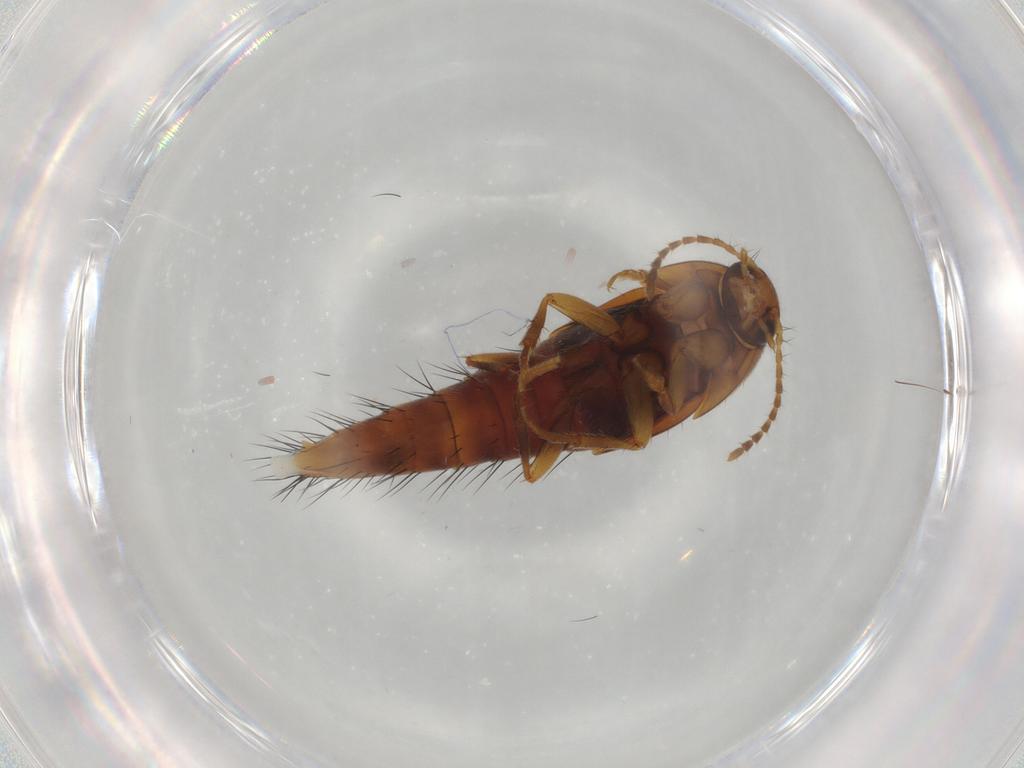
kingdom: Animalia
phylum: Arthropoda
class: Insecta
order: Coleoptera
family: Staphylinidae
